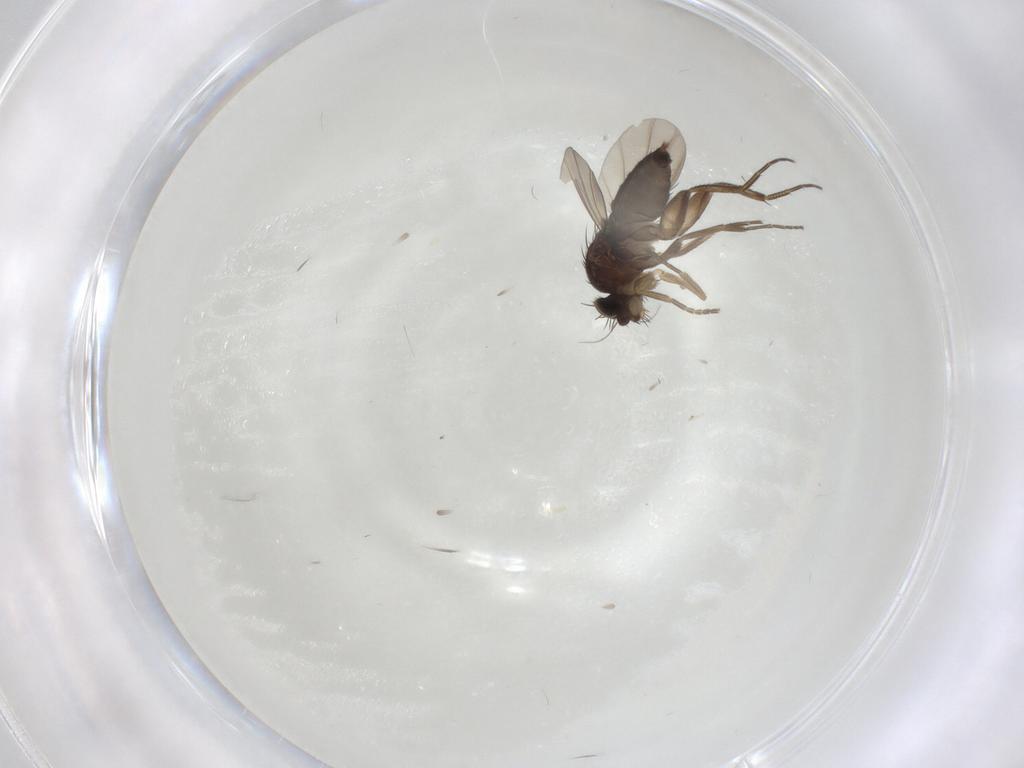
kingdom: Animalia
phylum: Arthropoda
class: Insecta
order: Diptera
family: Phoridae
